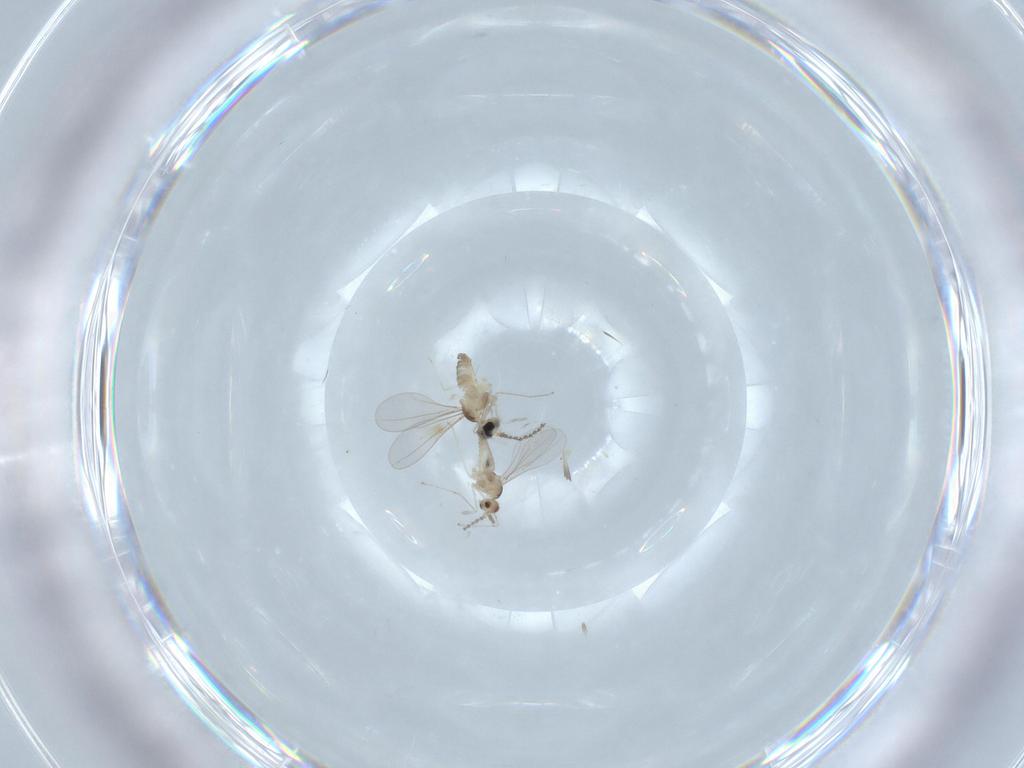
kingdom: Animalia
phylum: Arthropoda
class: Insecta
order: Diptera
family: Cecidomyiidae
